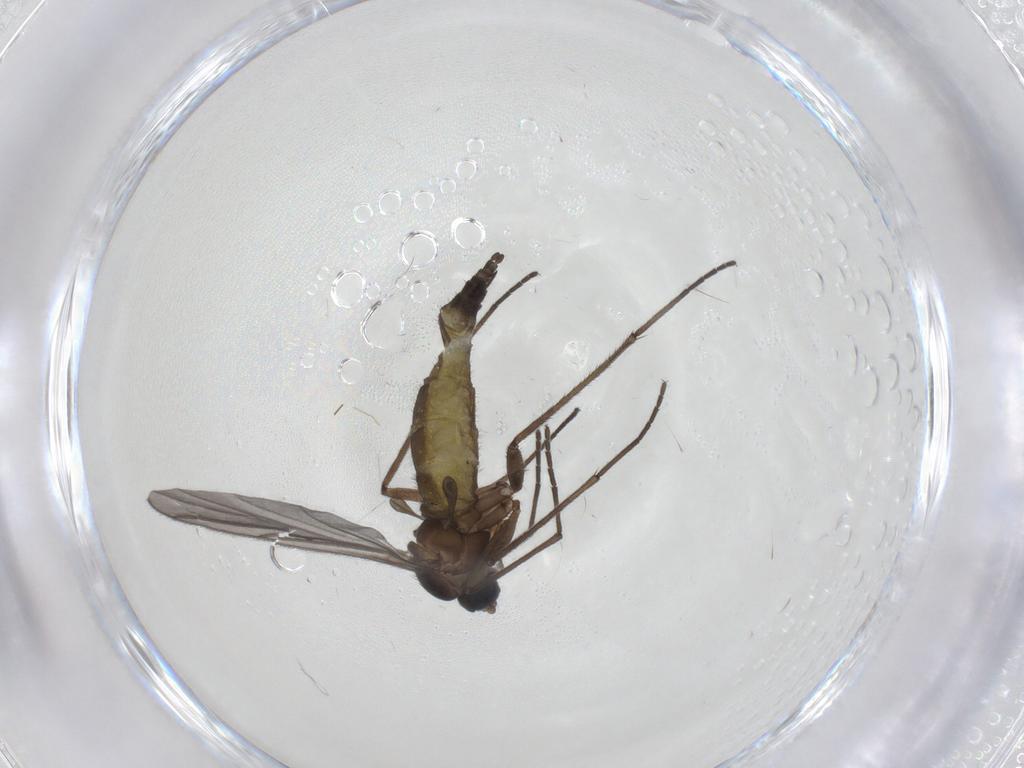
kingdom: Animalia
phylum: Arthropoda
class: Insecta
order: Diptera
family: Sciaridae
